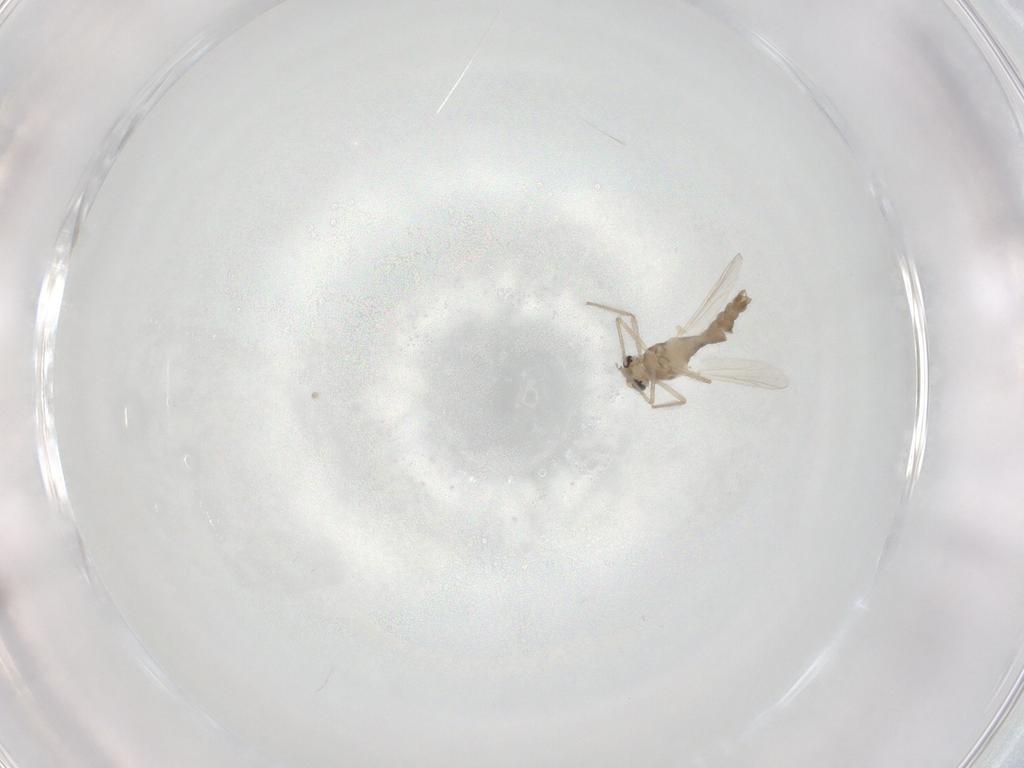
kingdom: Animalia
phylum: Arthropoda
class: Insecta
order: Diptera
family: Chironomidae
